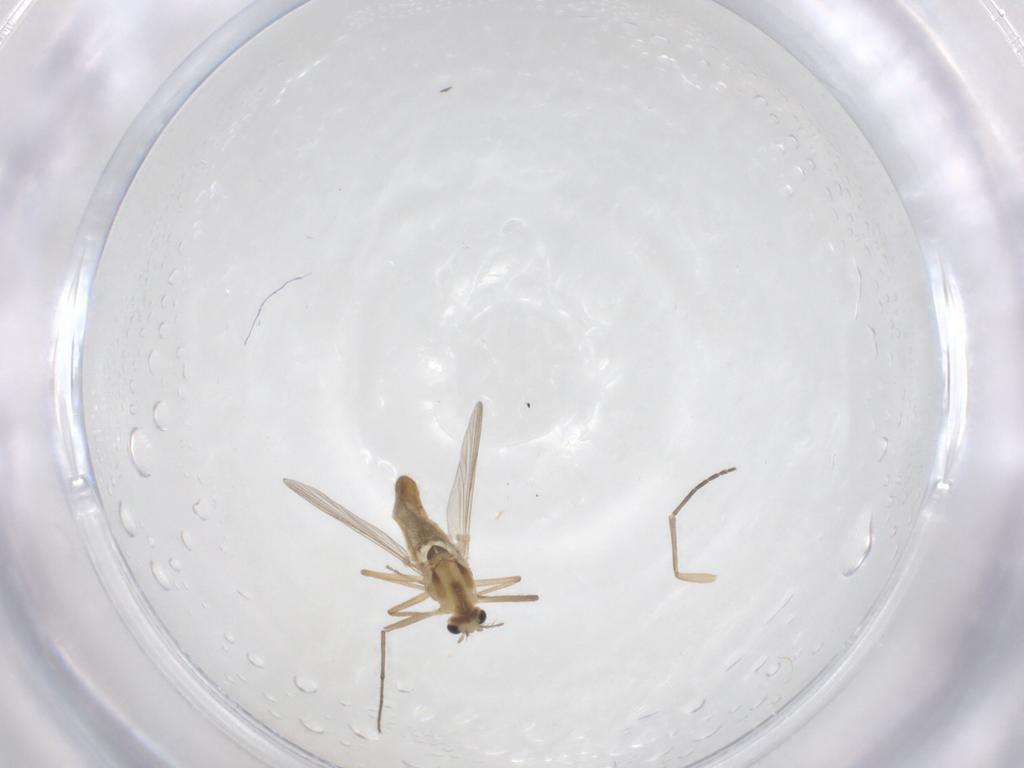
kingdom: Animalia
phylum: Arthropoda
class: Insecta
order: Diptera
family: Chironomidae
